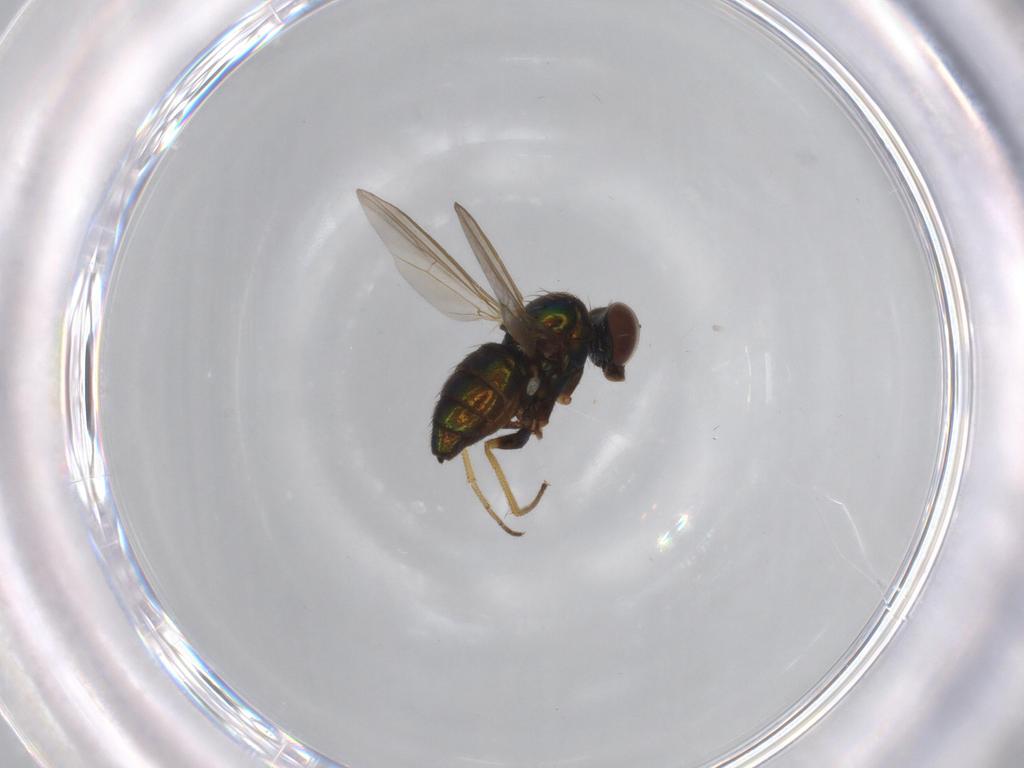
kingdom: Animalia
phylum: Arthropoda
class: Insecta
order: Diptera
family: Dolichopodidae
